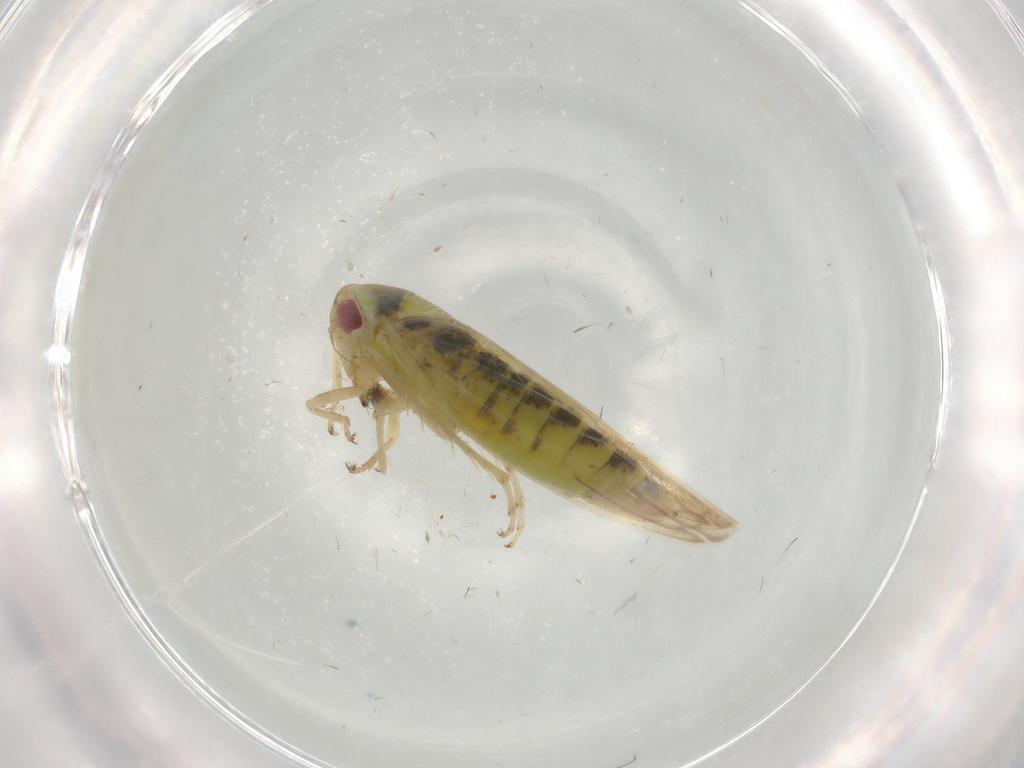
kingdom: Animalia
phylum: Arthropoda
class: Insecta
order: Hemiptera
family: Cicadellidae
